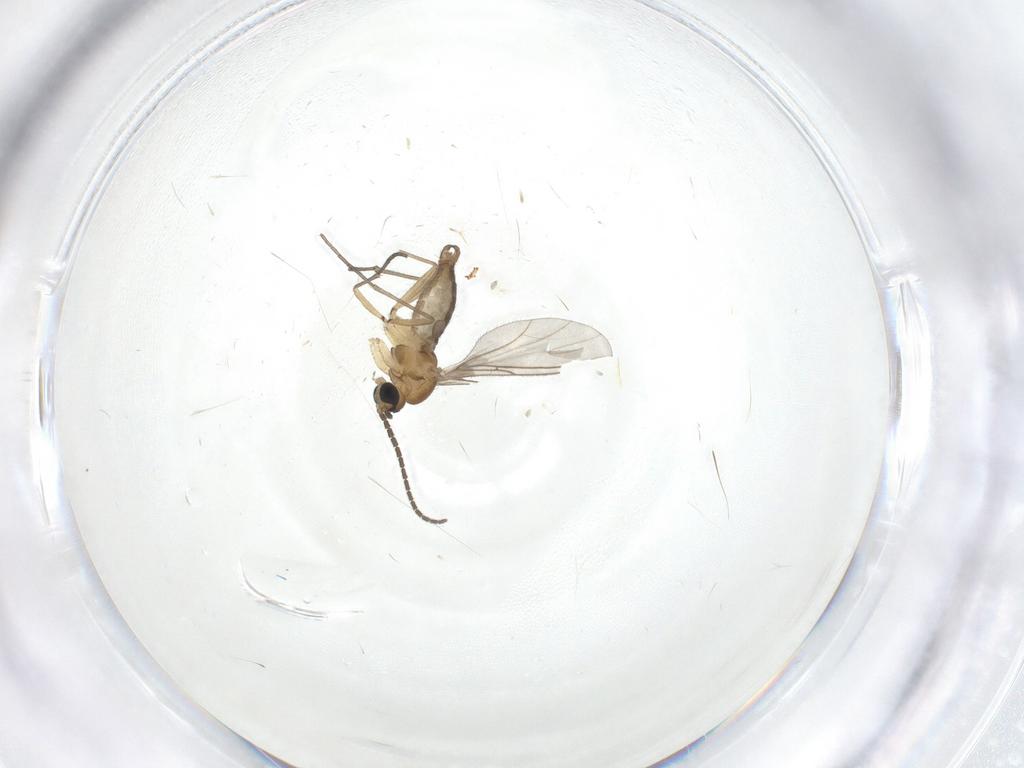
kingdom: Animalia
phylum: Arthropoda
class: Insecta
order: Diptera
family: Sciaridae
